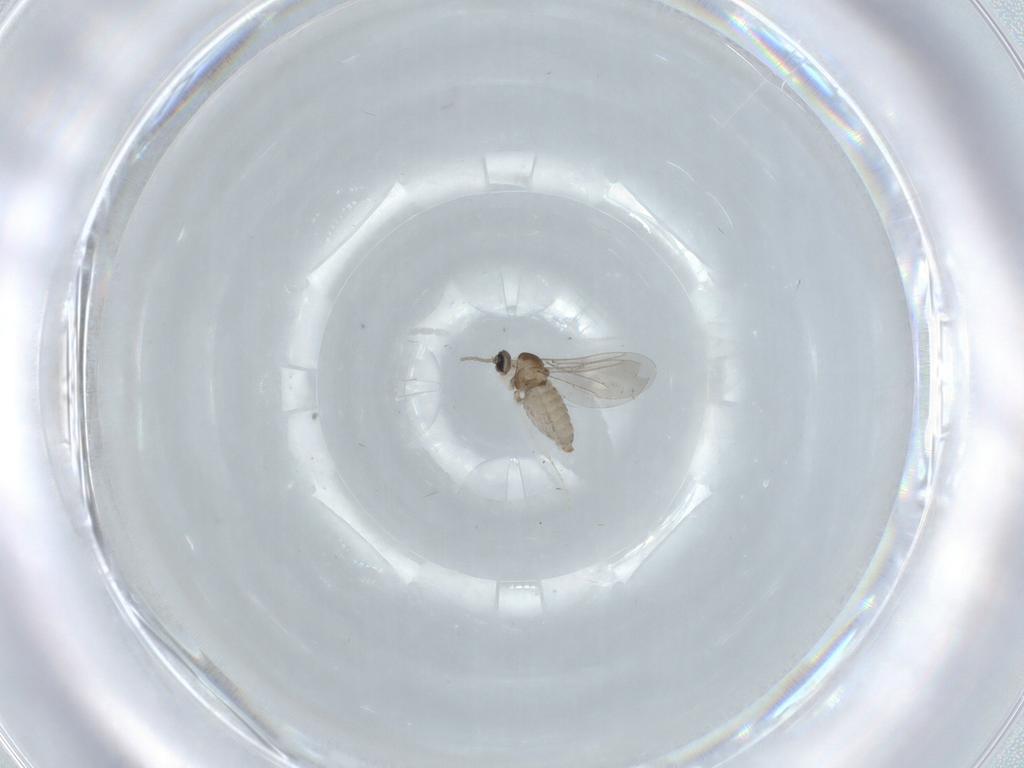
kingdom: Animalia
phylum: Arthropoda
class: Insecta
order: Diptera
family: Cecidomyiidae
